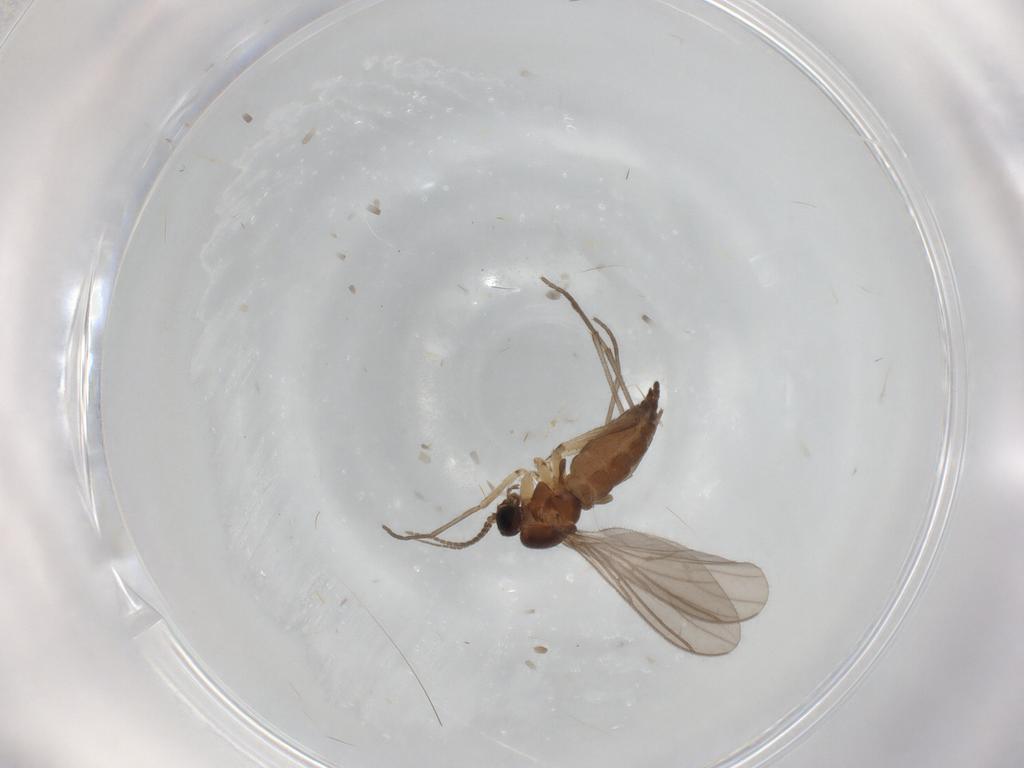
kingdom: Animalia
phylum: Arthropoda
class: Insecta
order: Diptera
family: Sciaridae
